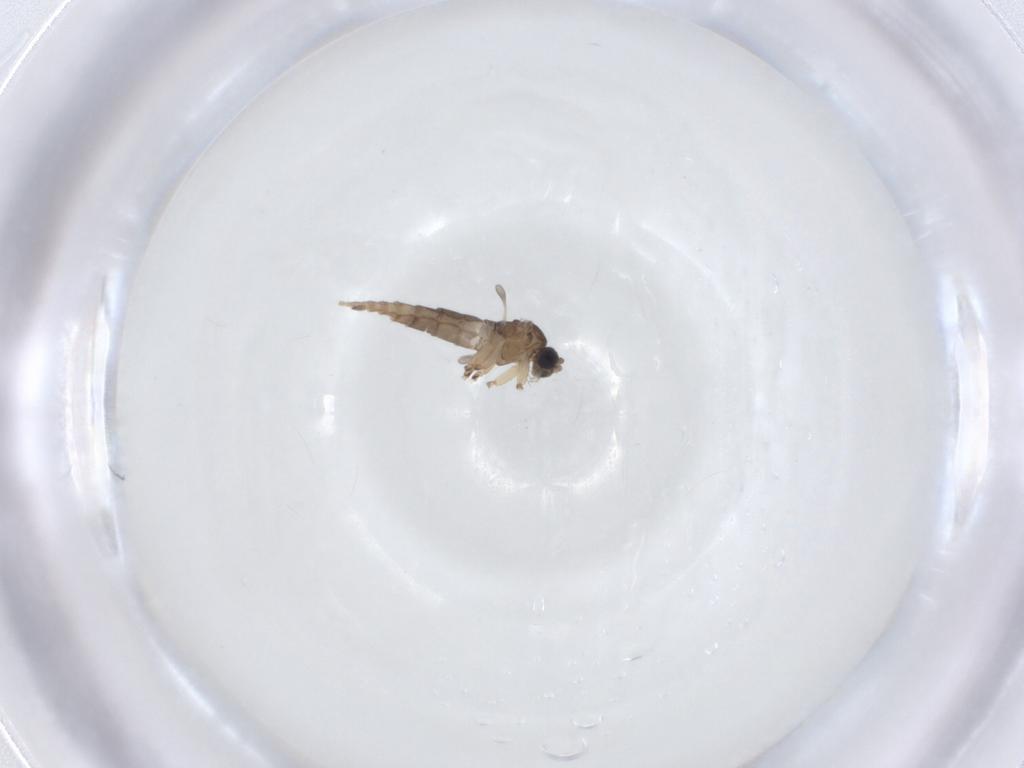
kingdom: Animalia
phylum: Arthropoda
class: Insecta
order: Diptera
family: Sciaridae
